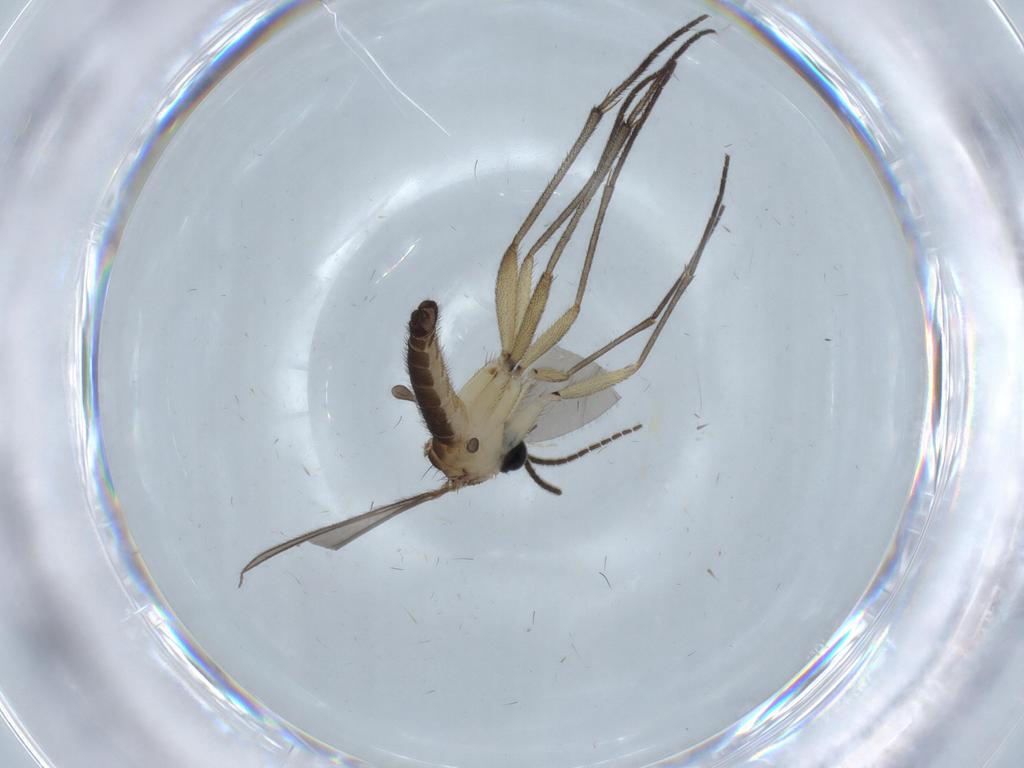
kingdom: Animalia
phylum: Arthropoda
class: Insecta
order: Diptera
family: Sciaridae
